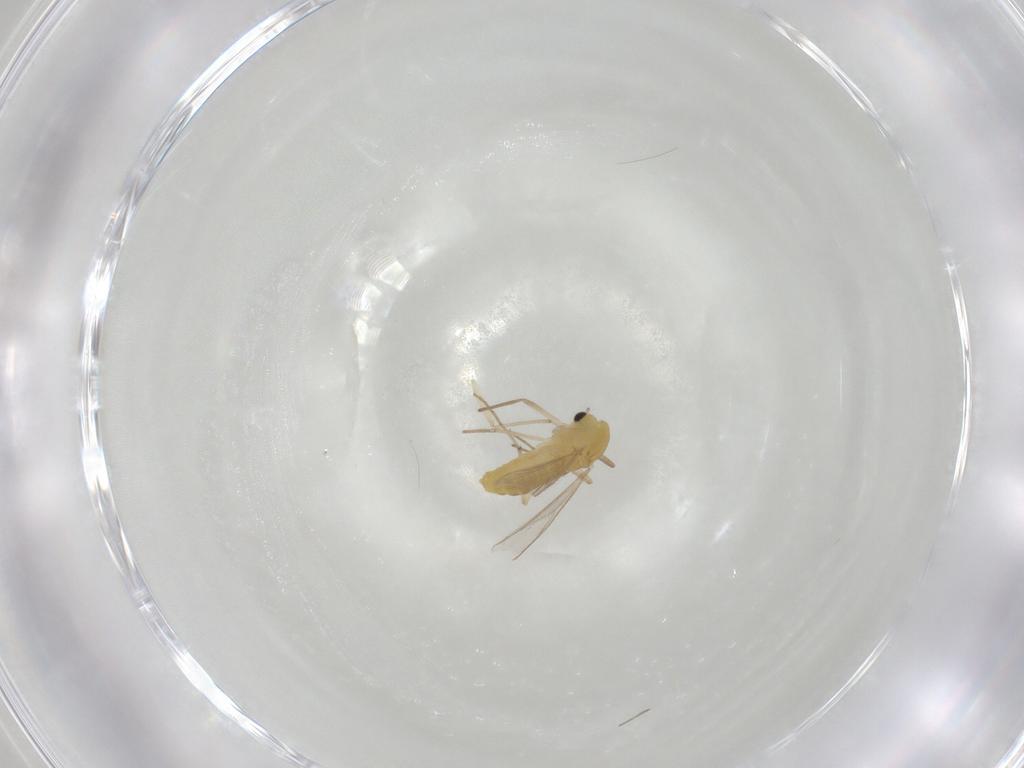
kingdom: Animalia
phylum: Arthropoda
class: Insecta
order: Diptera
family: Chironomidae
